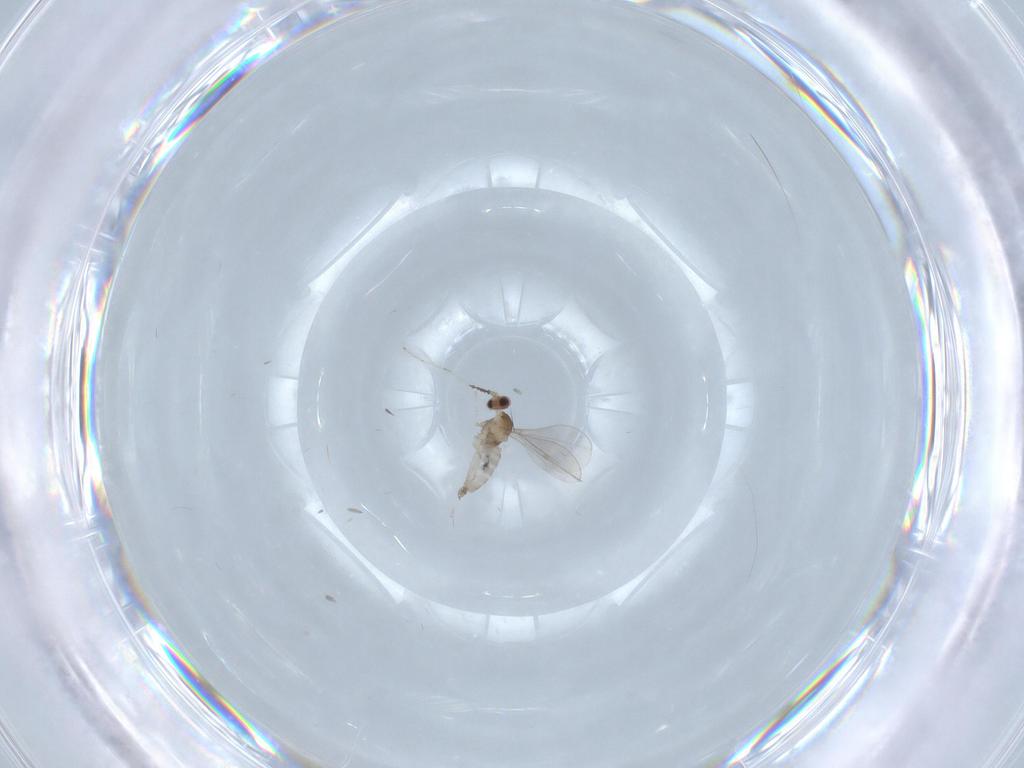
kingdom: Animalia
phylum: Arthropoda
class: Insecta
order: Diptera
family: Cecidomyiidae
